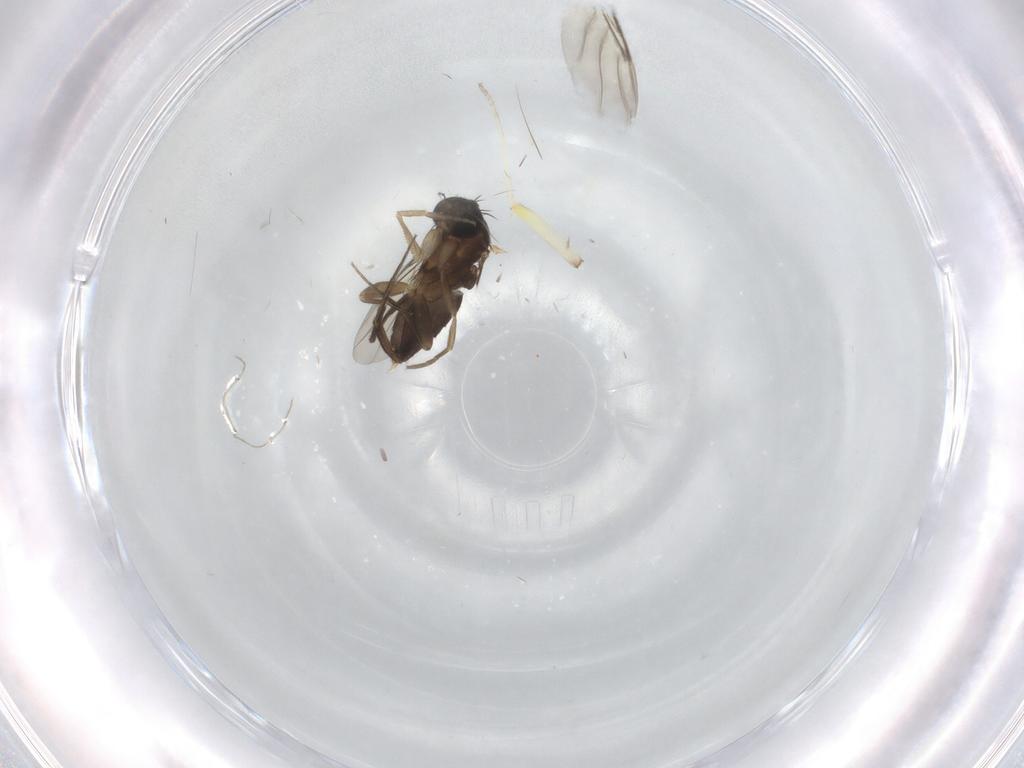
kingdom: Animalia
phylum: Arthropoda
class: Insecta
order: Diptera
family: Phoridae
